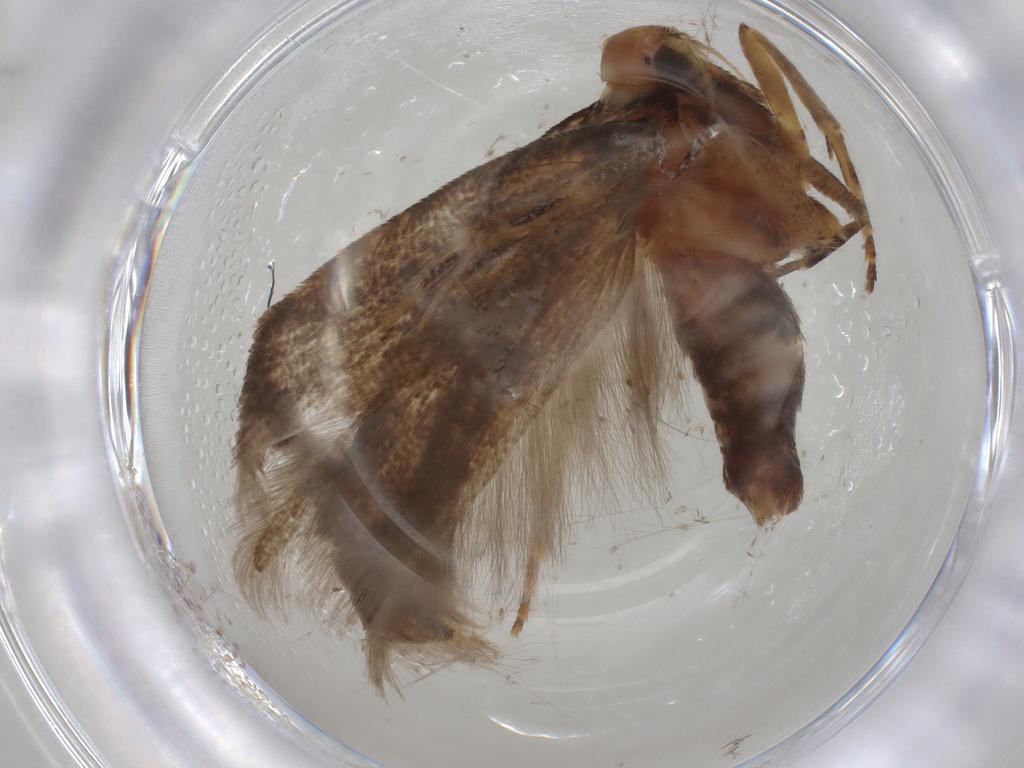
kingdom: Animalia
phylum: Arthropoda
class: Insecta
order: Lepidoptera
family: Gelechiidae
